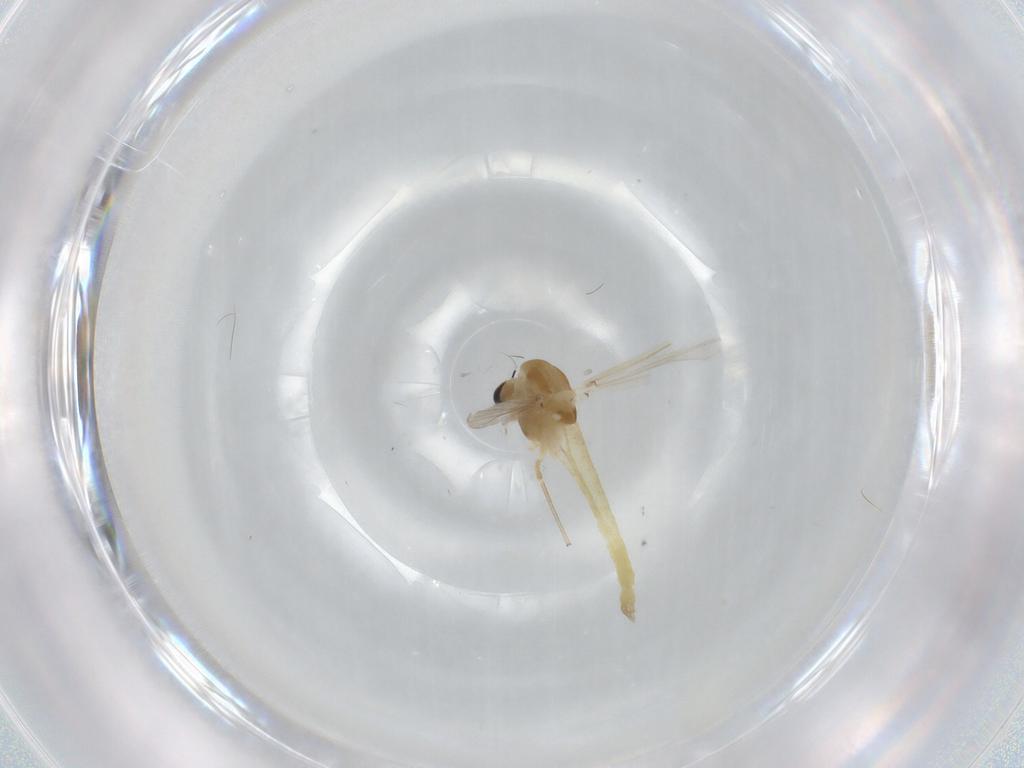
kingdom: Animalia
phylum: Arthropoda
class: Insecta
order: Diptera
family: Chironomidae
